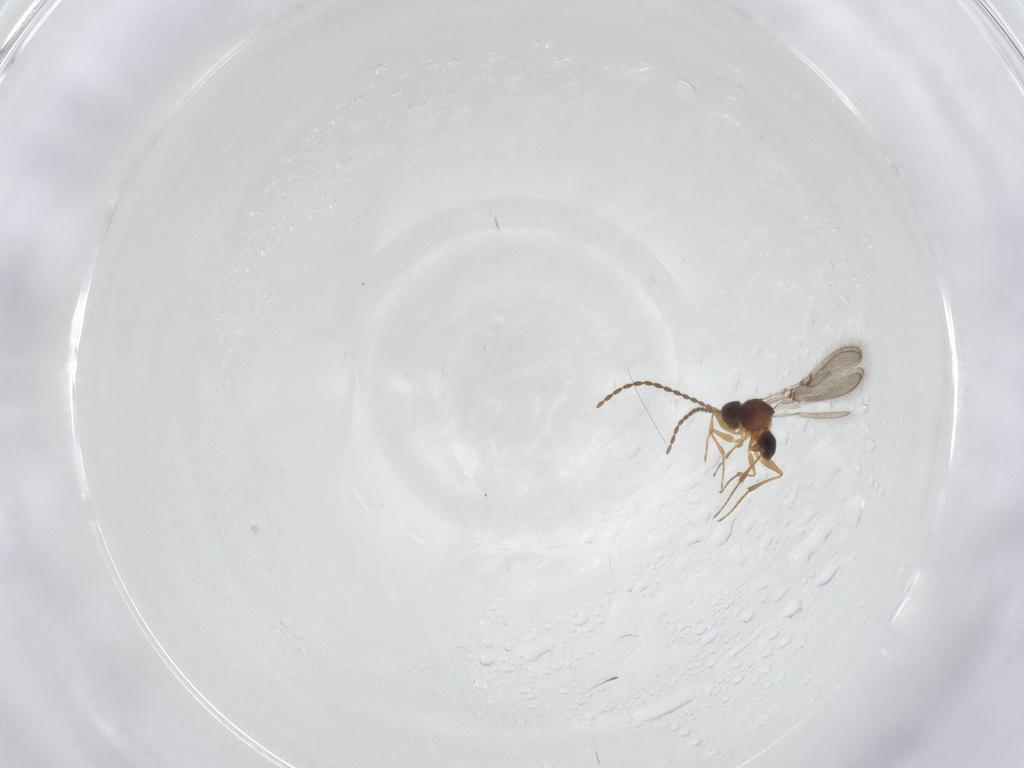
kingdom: Animalia
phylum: Arthropoda
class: Insecta
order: Hymenoptera
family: Figitidae
